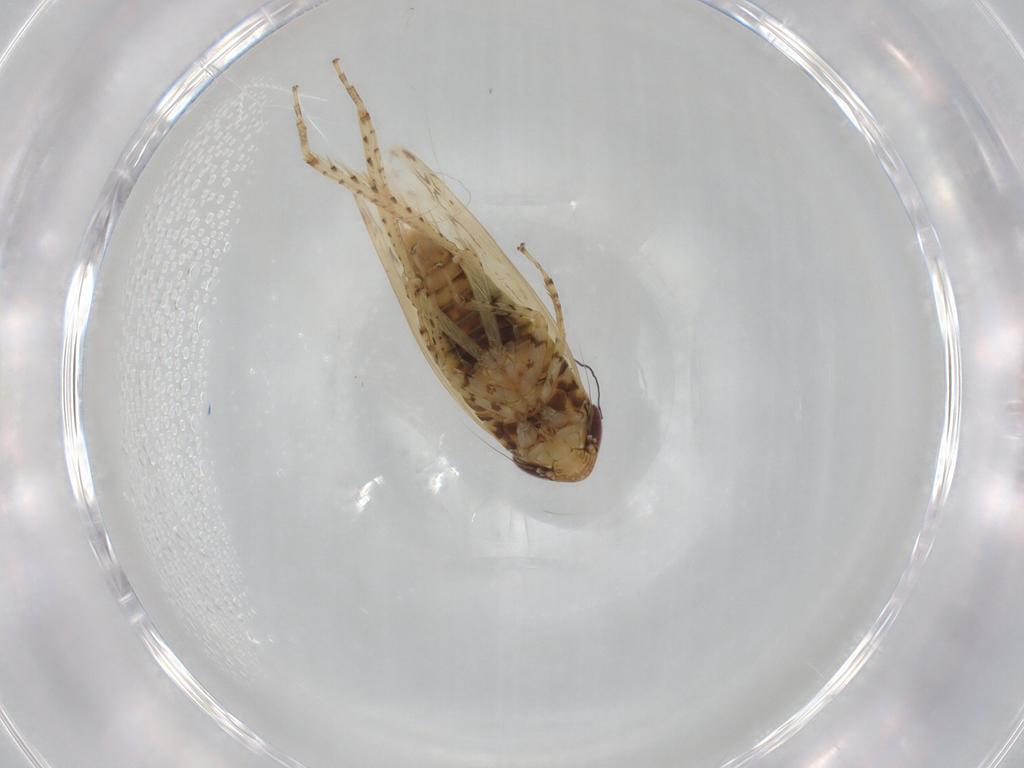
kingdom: Animalia
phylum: Arthropoda
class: Insecta
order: Hemiptera
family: Cicadellidae
